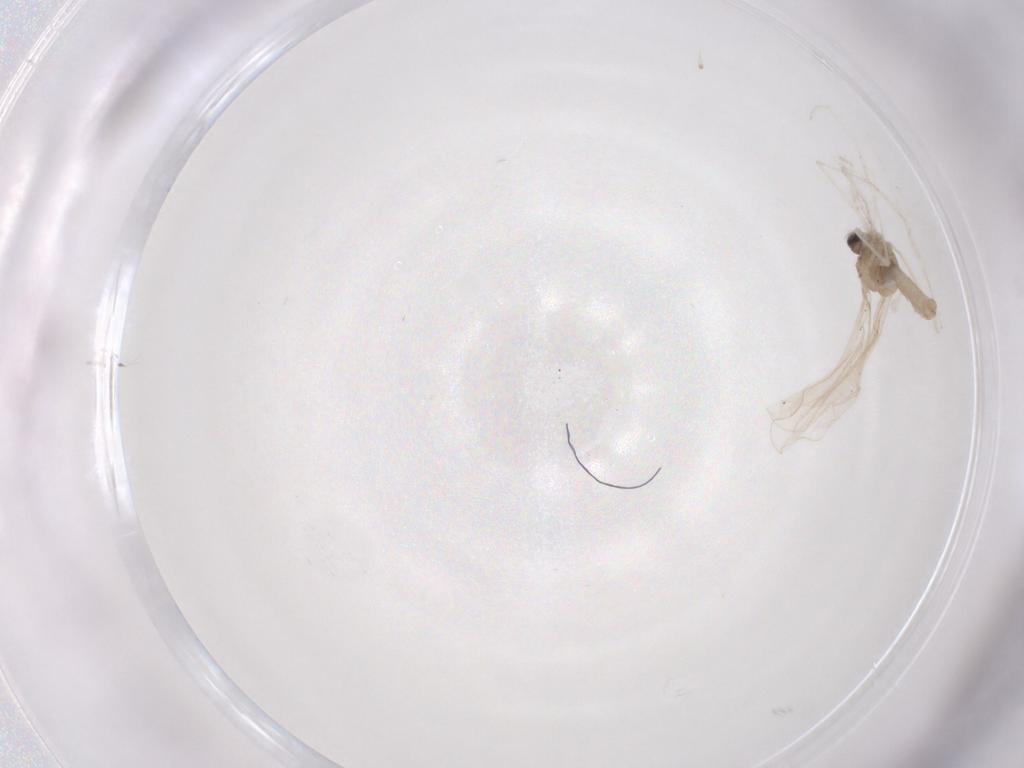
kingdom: Animalia
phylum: Arthropoda
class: Insecta
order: Diptera
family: Cecidomyiidae
